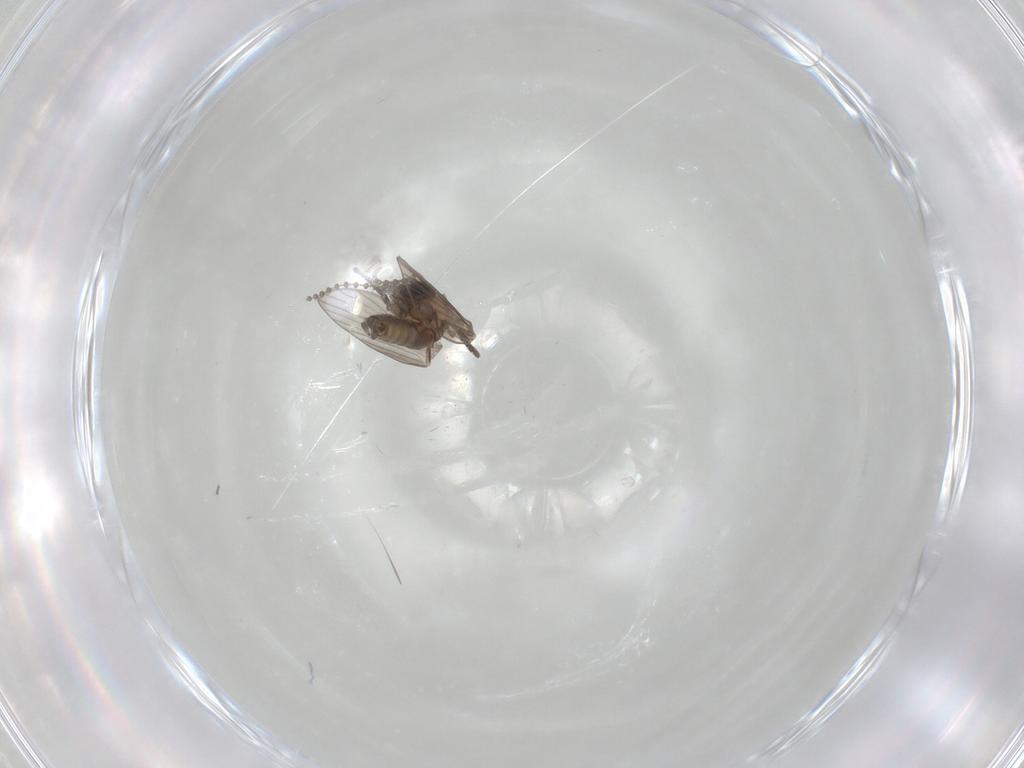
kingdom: Animalia
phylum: Arthropoda
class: Insecta
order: Diptera
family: Psychodidae
